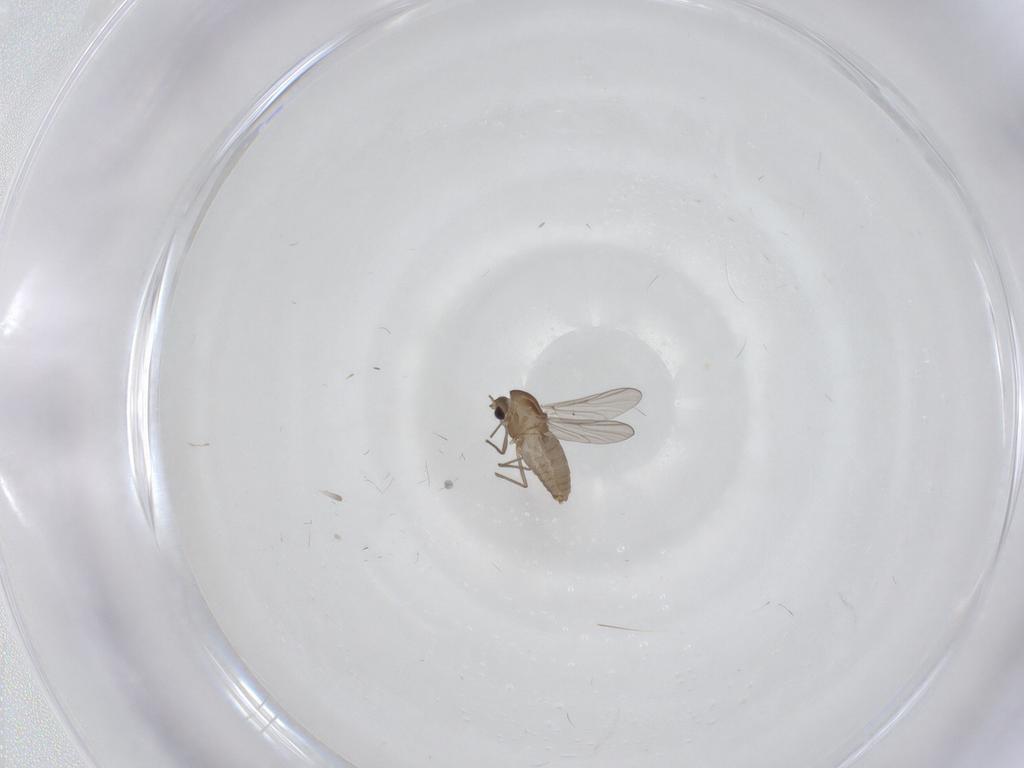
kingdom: Animalia
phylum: Arthropoda
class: Insecta
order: Diptera
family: Chironomidae
